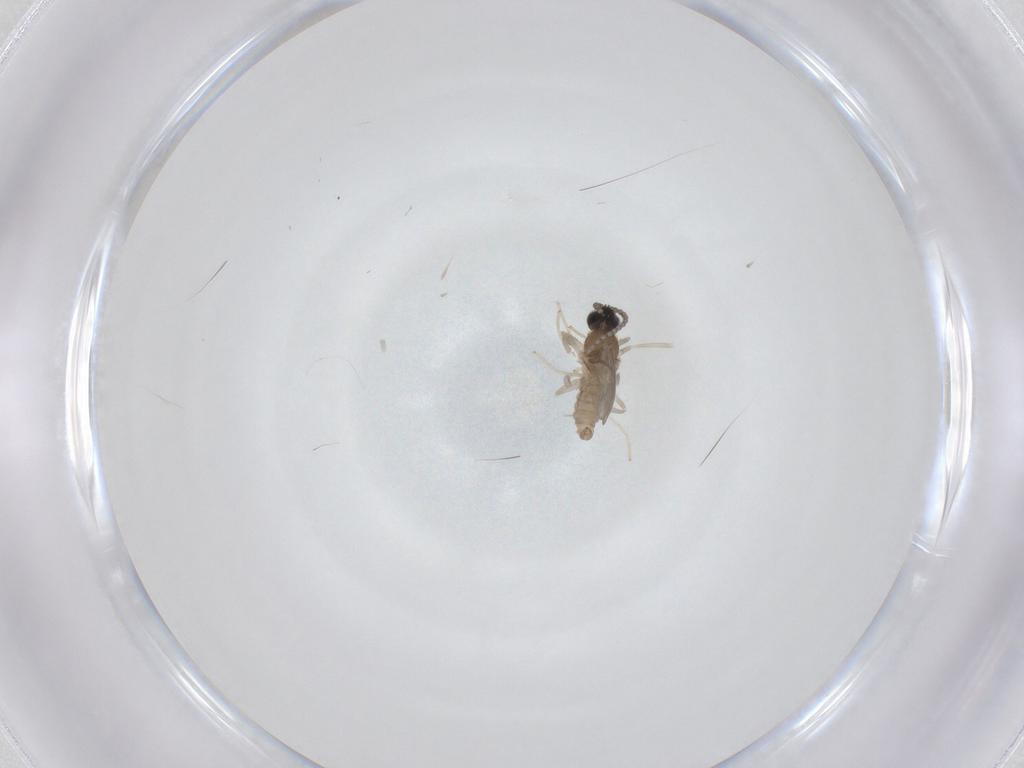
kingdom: Animalia
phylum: Arthropoda
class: Insecta
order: Diptera
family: Cecidomyiidae
